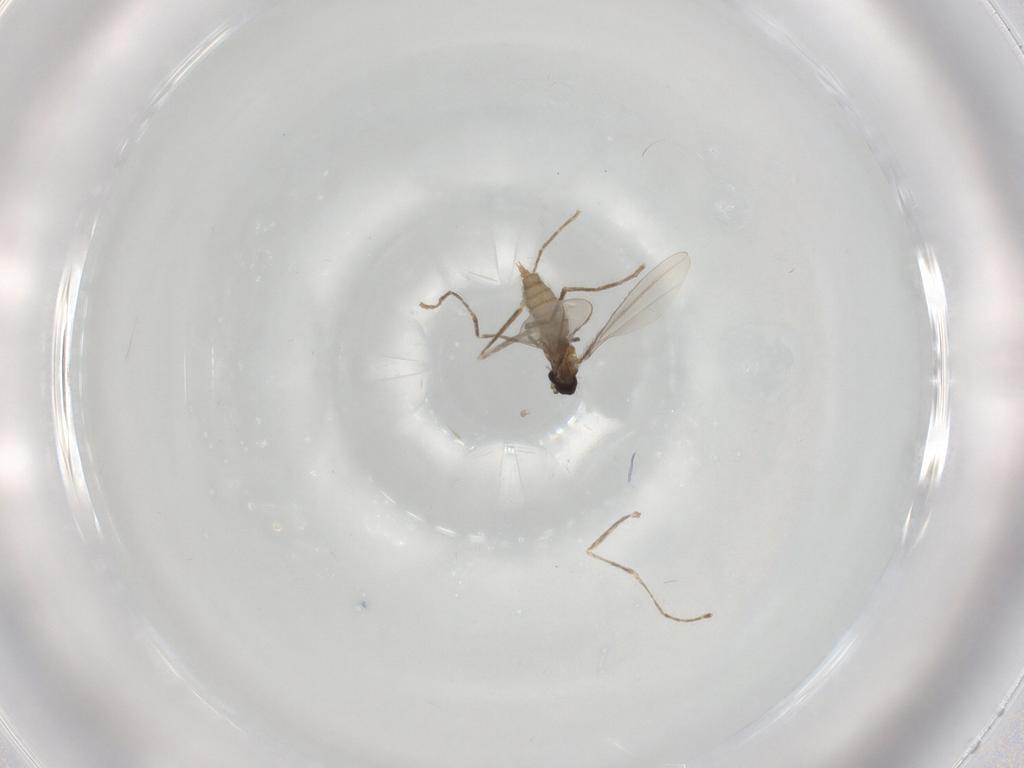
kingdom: Animalia
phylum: Arthropoda
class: Insecta
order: Diptera
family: Cecidomyiidae
